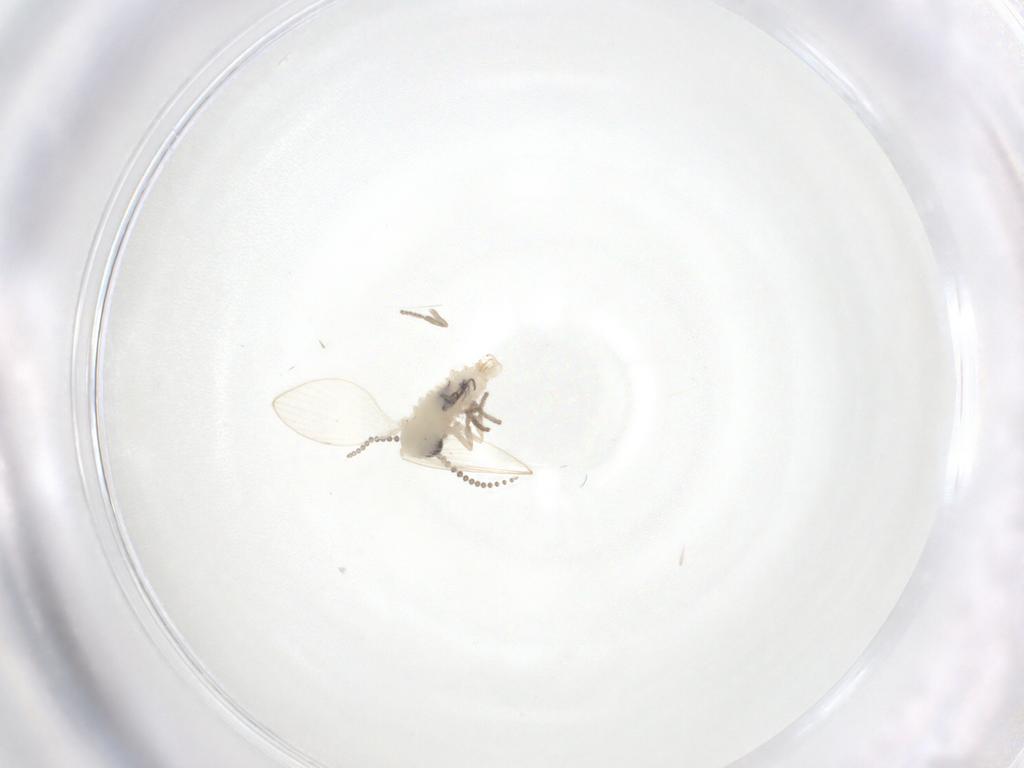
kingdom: Animalia
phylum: Arthropoda
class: Insecta
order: Diptera
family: Psychodidae
